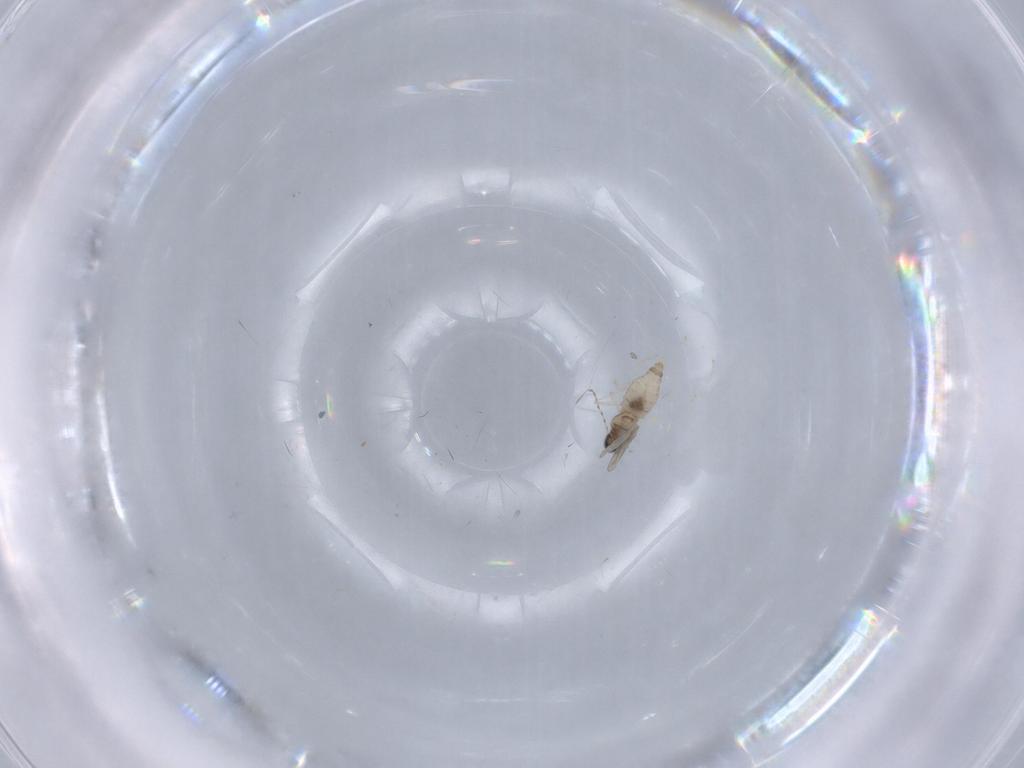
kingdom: Animalia
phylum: Arthropoda
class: Insecta
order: Diptera
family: Cecidomyiidae
